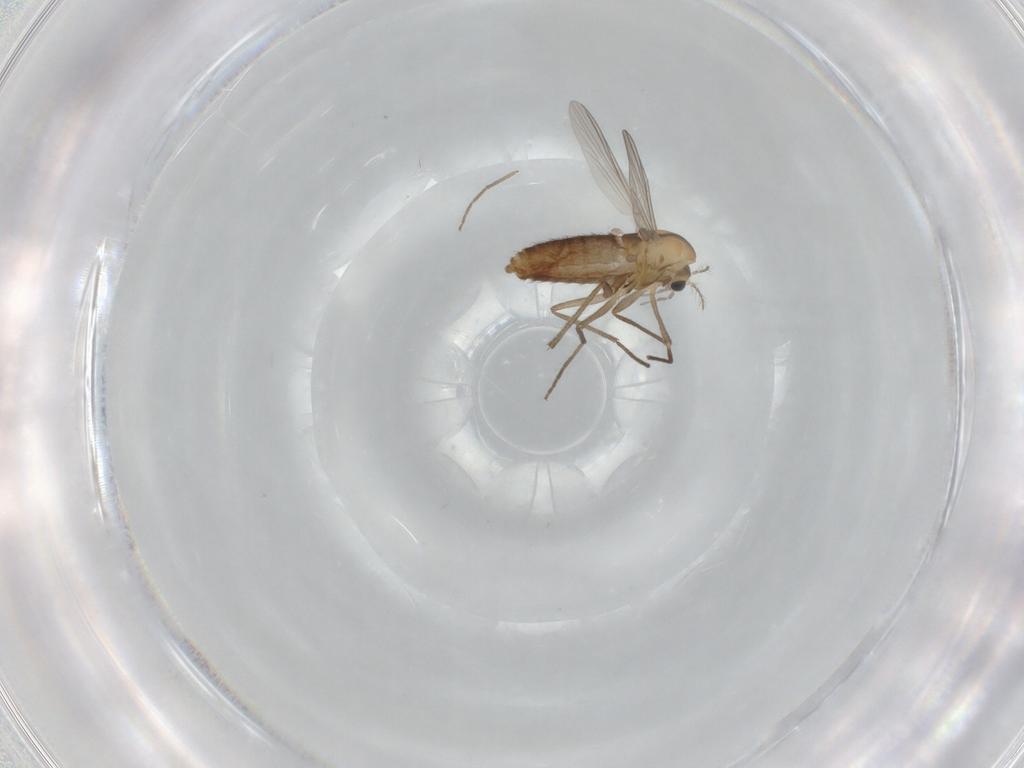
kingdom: Animalia
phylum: Arthropoda
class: Insecta
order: Diptera
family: Chironomidae
